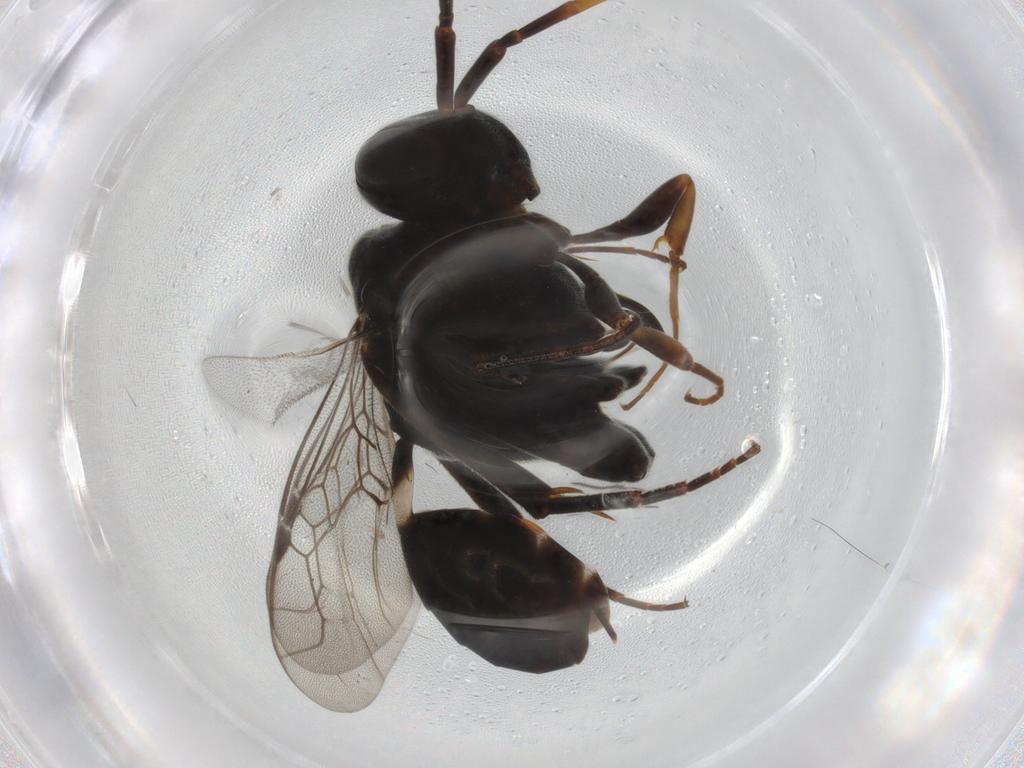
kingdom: Animalia
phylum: Arthropoda
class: Insecta
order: Hymenoptera
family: Evaniidae
